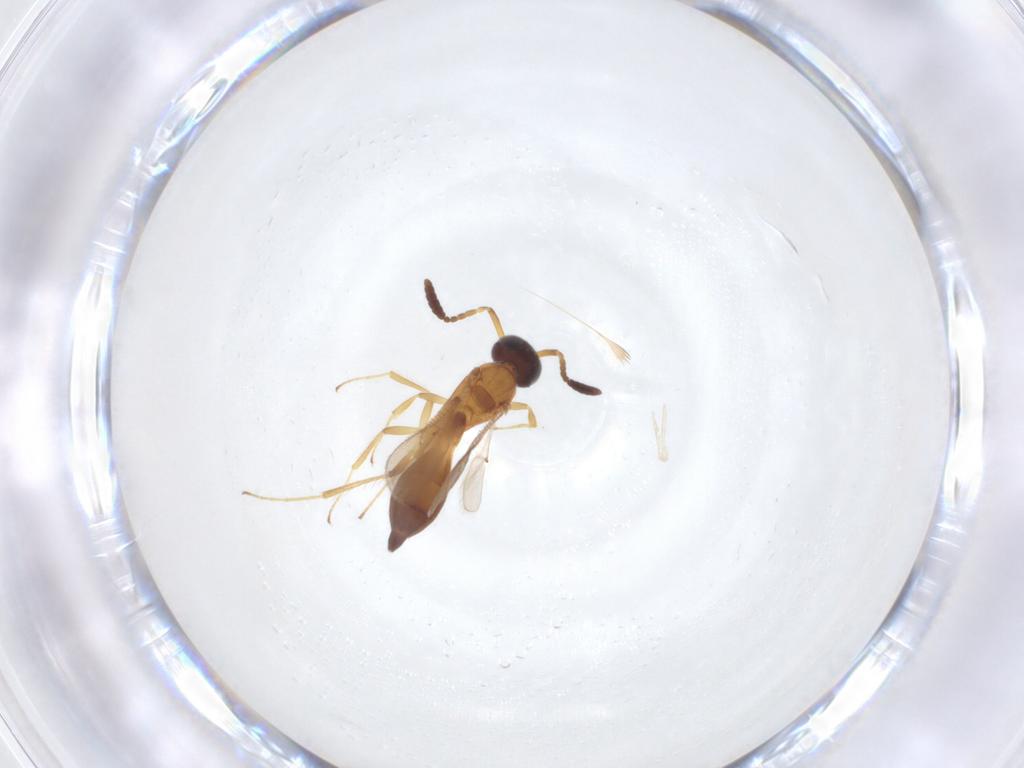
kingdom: Animalia
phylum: Arthropoda
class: Insecta
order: Hymenoptera
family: Scelionidae
